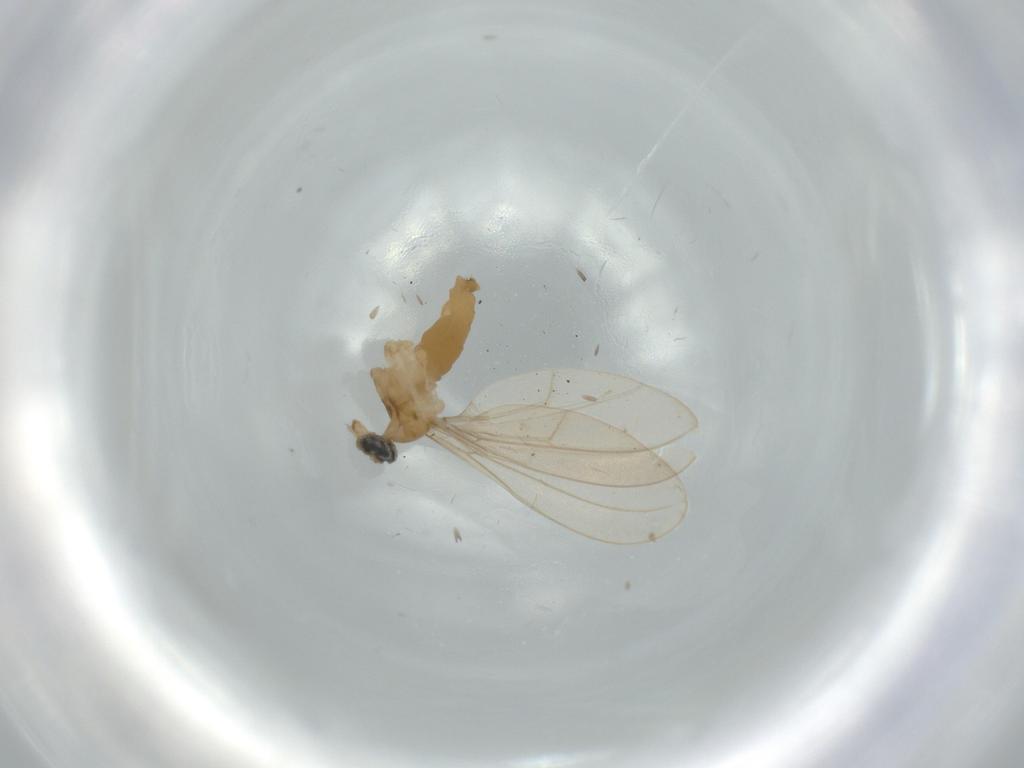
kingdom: Animalia
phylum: Arthropoda
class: Insecta
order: Diptera
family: Cecidomyiidae
